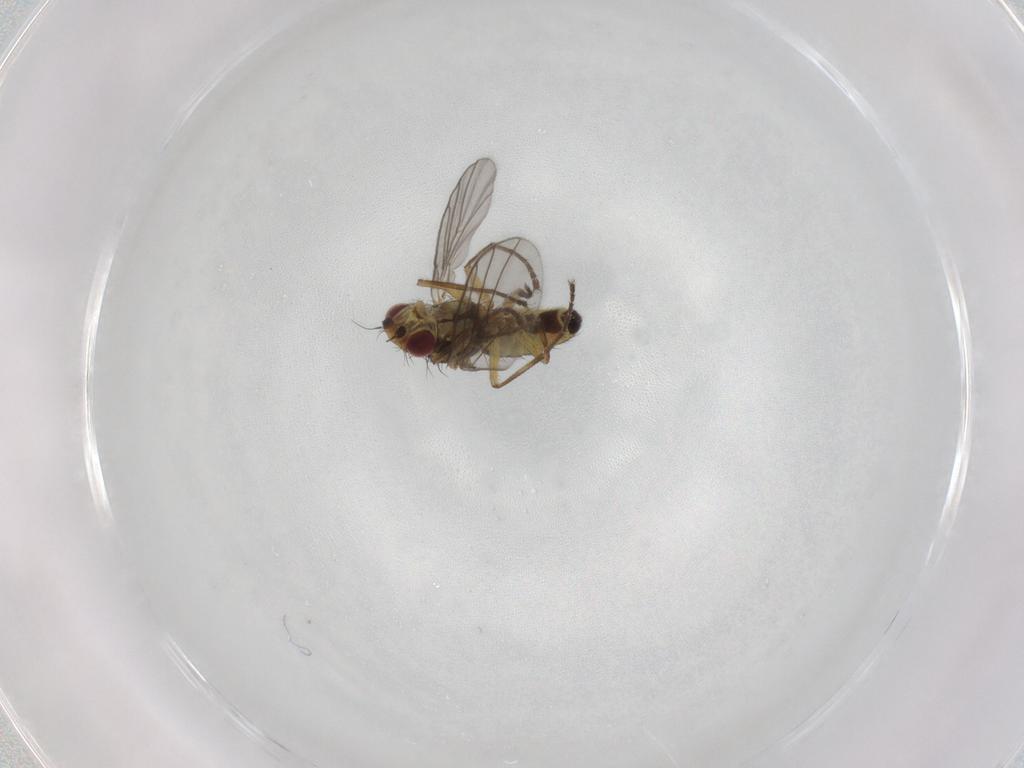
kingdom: Animalia
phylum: Arthropoda
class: Insecta
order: Diptera
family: Agromyzidae
